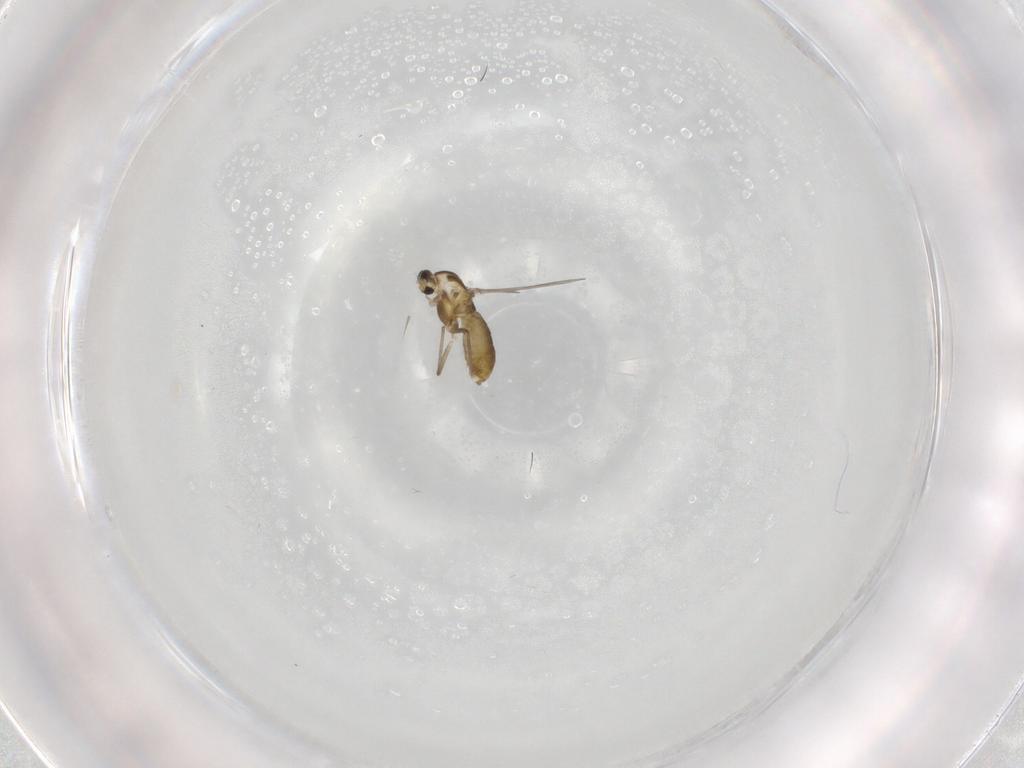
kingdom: Animalia
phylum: Arthropoda
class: Insecta
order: Diptera
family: Chironomidae
